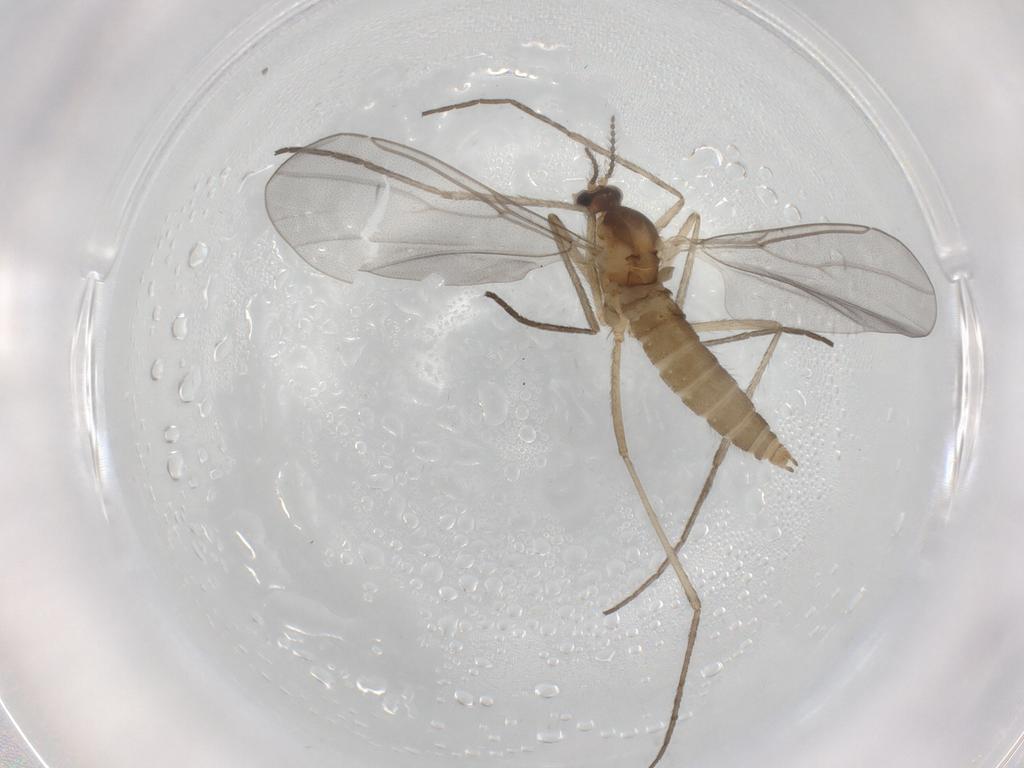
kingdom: Animalia
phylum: Arthropoda
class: Insecta
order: Diptera
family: Cecidomyiidae
